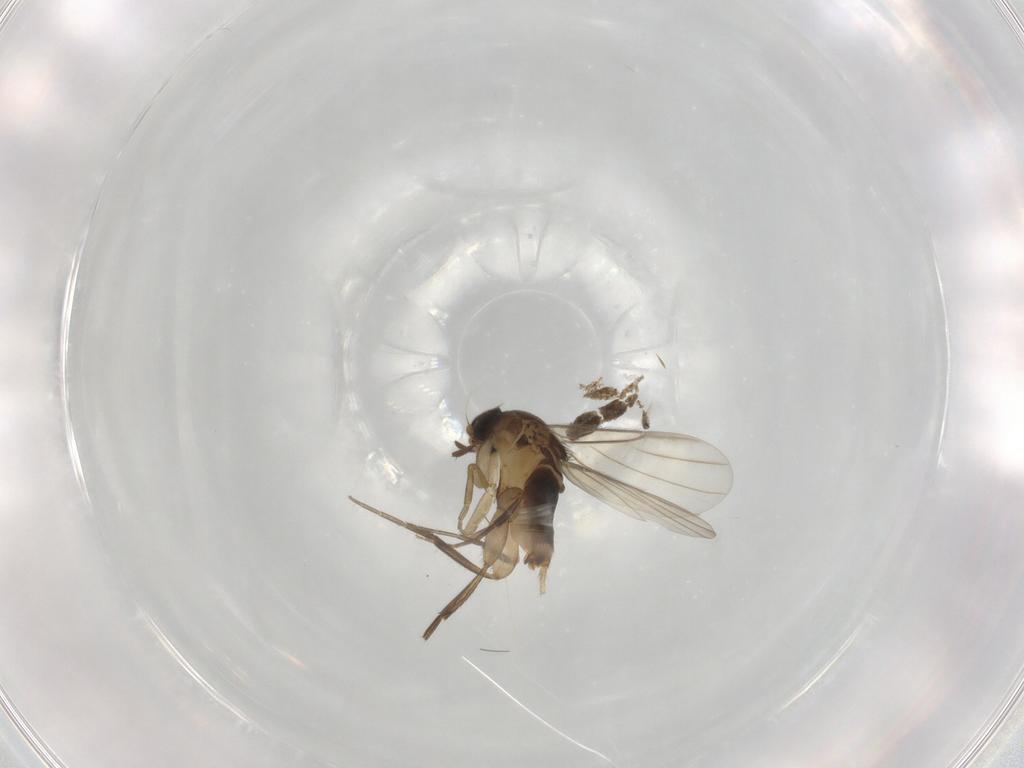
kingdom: Animalia
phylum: Arthropoda
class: Insecta
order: Diptera
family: Phoridae
